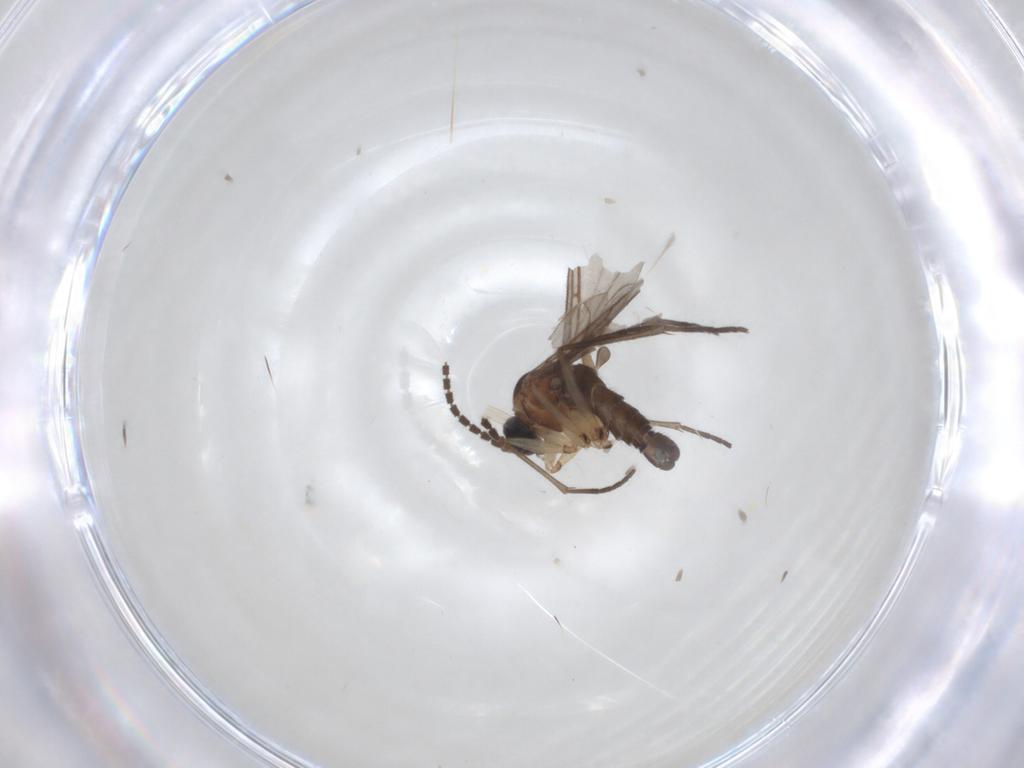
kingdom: Animalia
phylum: Arthropoda
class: Insecta
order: Diptera
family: Sciaridae
